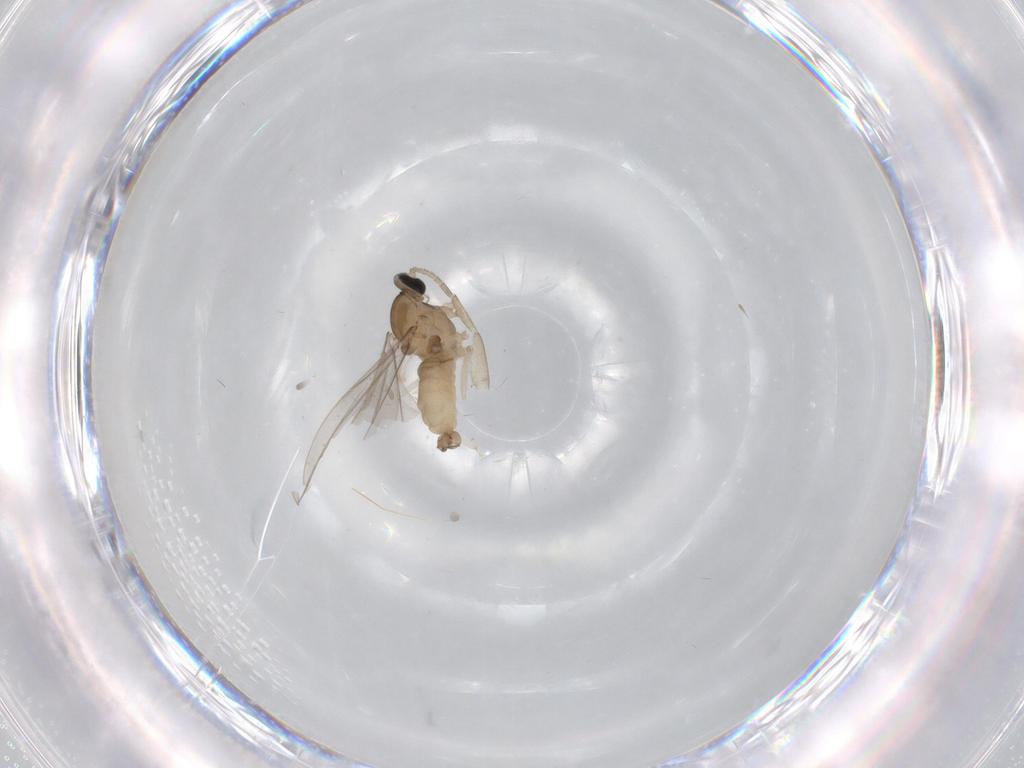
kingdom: Animalia
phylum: Arthropoda
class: Insecta
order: Diptera
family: Cecidomyiidae
